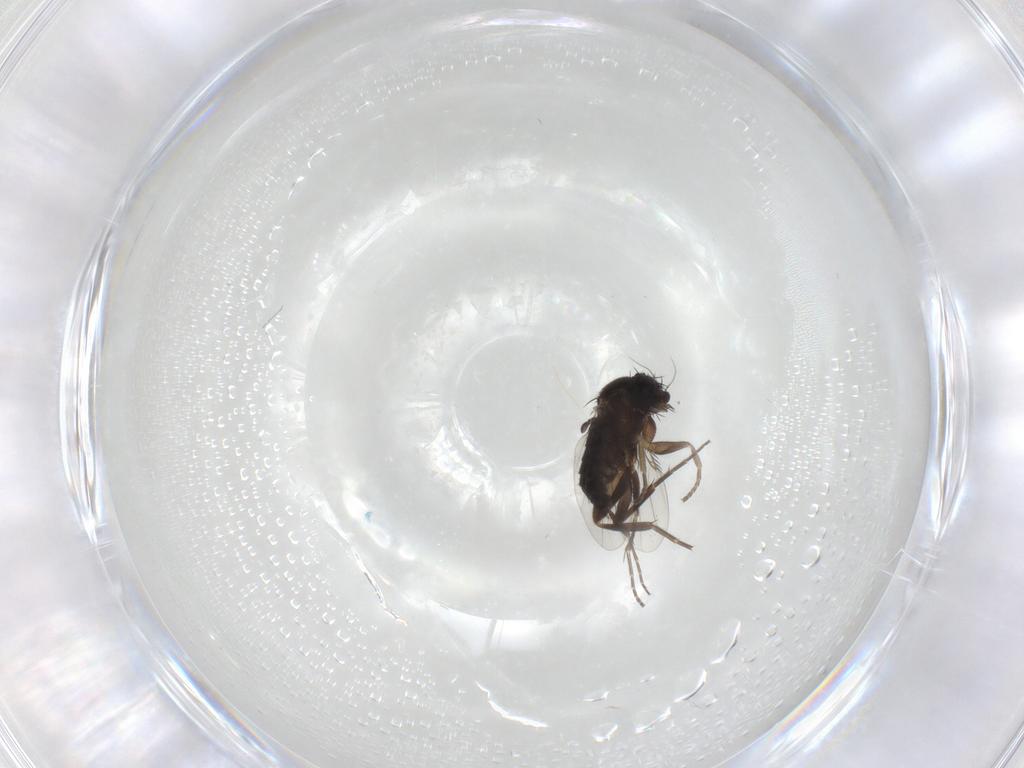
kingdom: Animalia
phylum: Arthropoda
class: Insecta
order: Diptera
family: Phoridae
